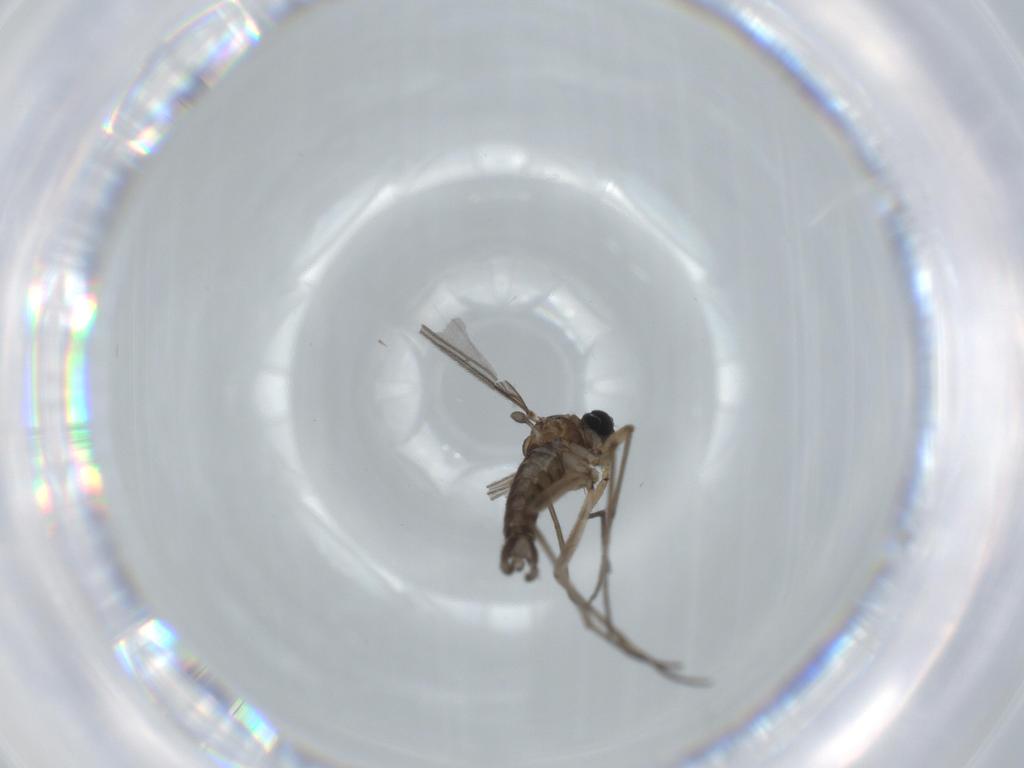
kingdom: Animalia
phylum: Arthropoda
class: Insecta
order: Diptera
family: Sciaridae
